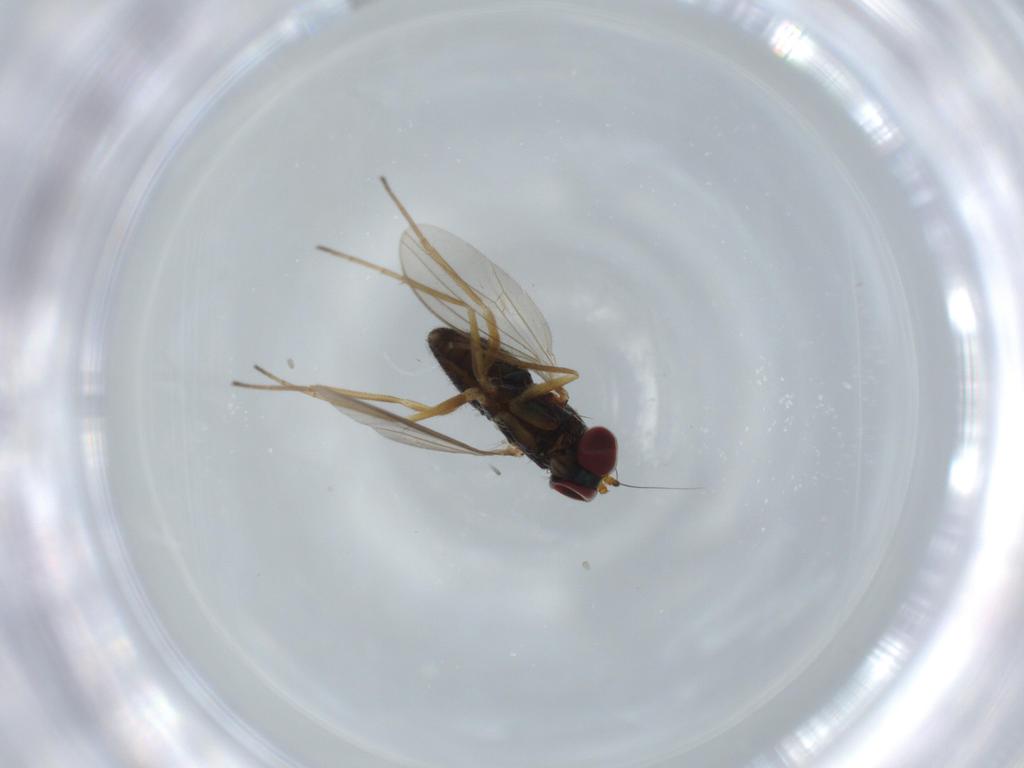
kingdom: Animalia
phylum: Arthropoda
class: Insecta
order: Diptera
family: Dolichopodidae
